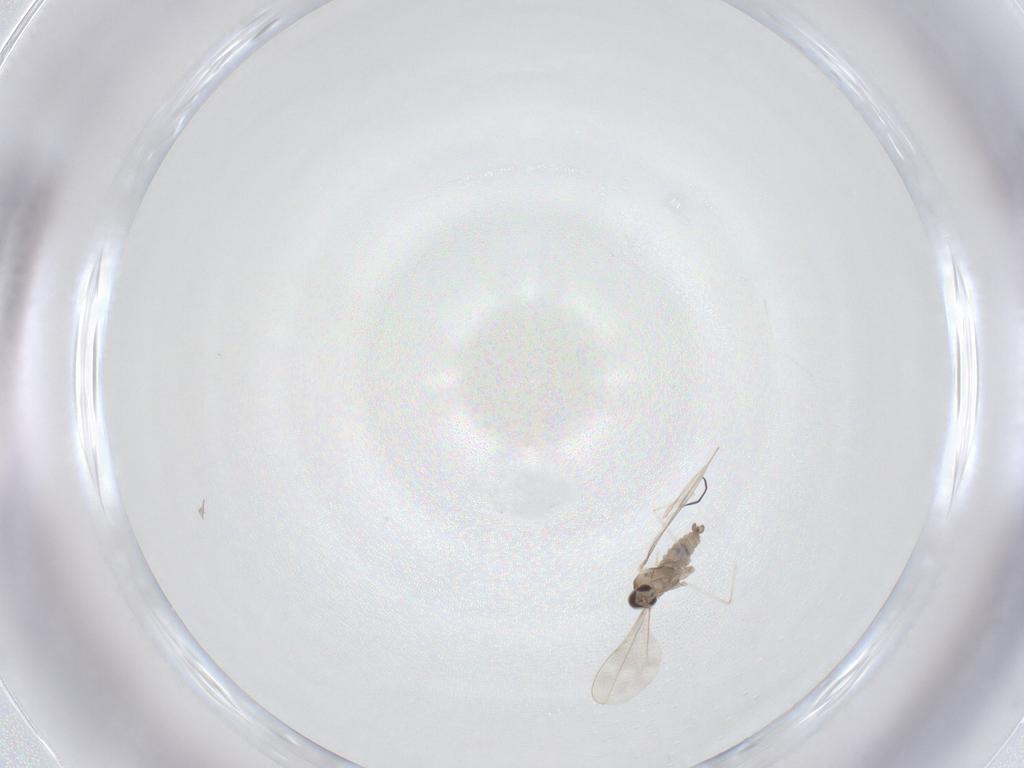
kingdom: Animalia
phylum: Arthropoda
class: Insecta
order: Diptera
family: Cecidomyiidae
